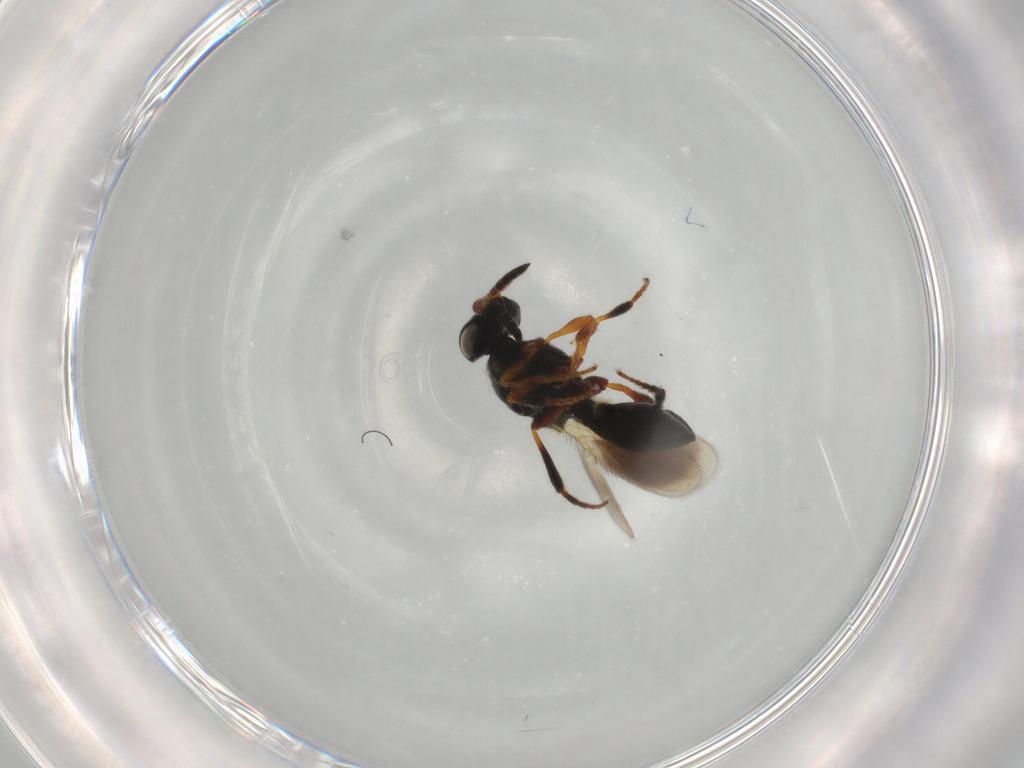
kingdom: Animalia
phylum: Arthropoda
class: Insecta
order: Hymenoptera
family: Platygastridae
